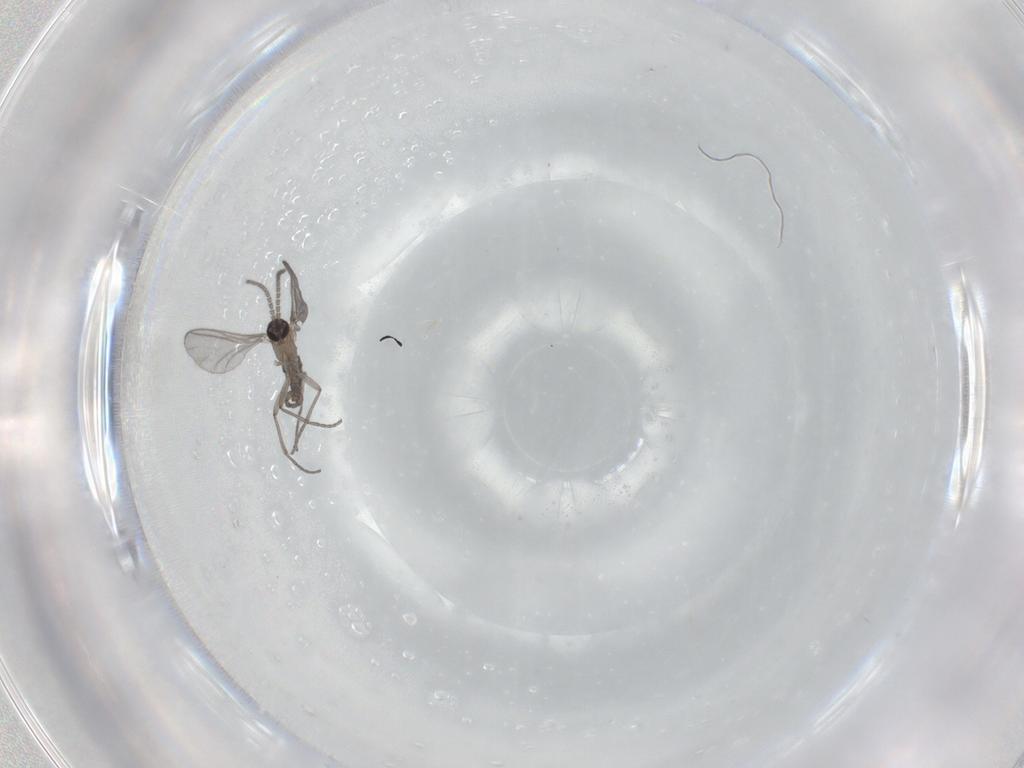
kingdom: Animalia
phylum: Arthropoda
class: Insecta
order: Diptera
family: Sciaridae
